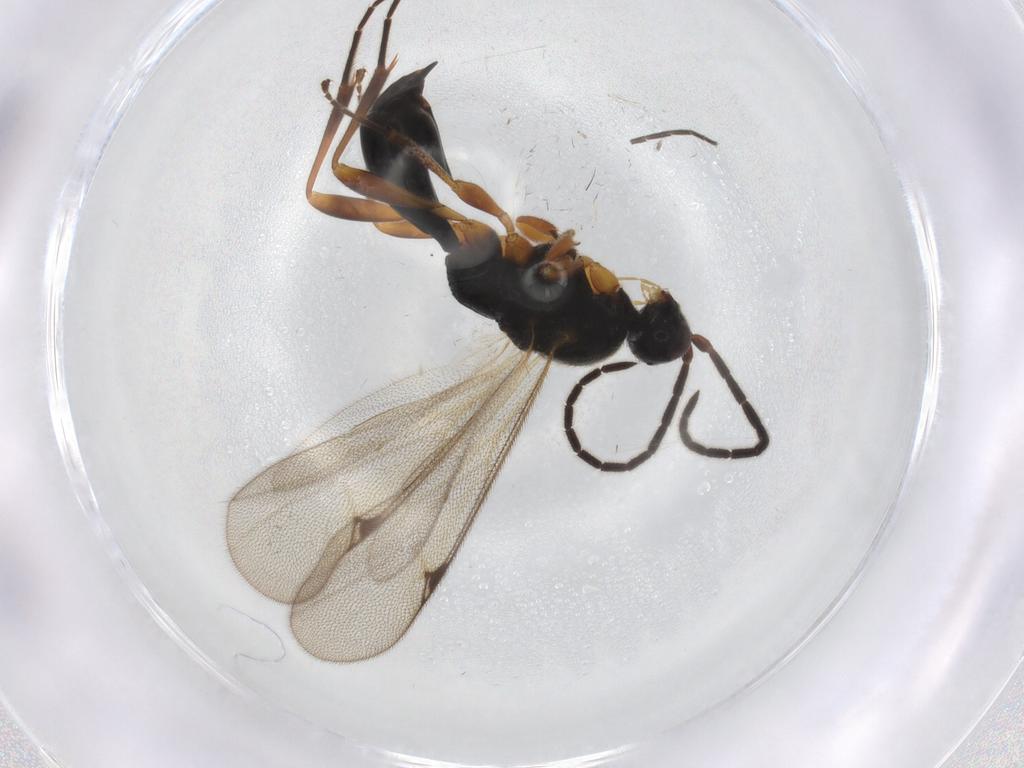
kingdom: Animalia
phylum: Arthropoda
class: Insecta
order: Hymenoptera
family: Proctotrupidae
